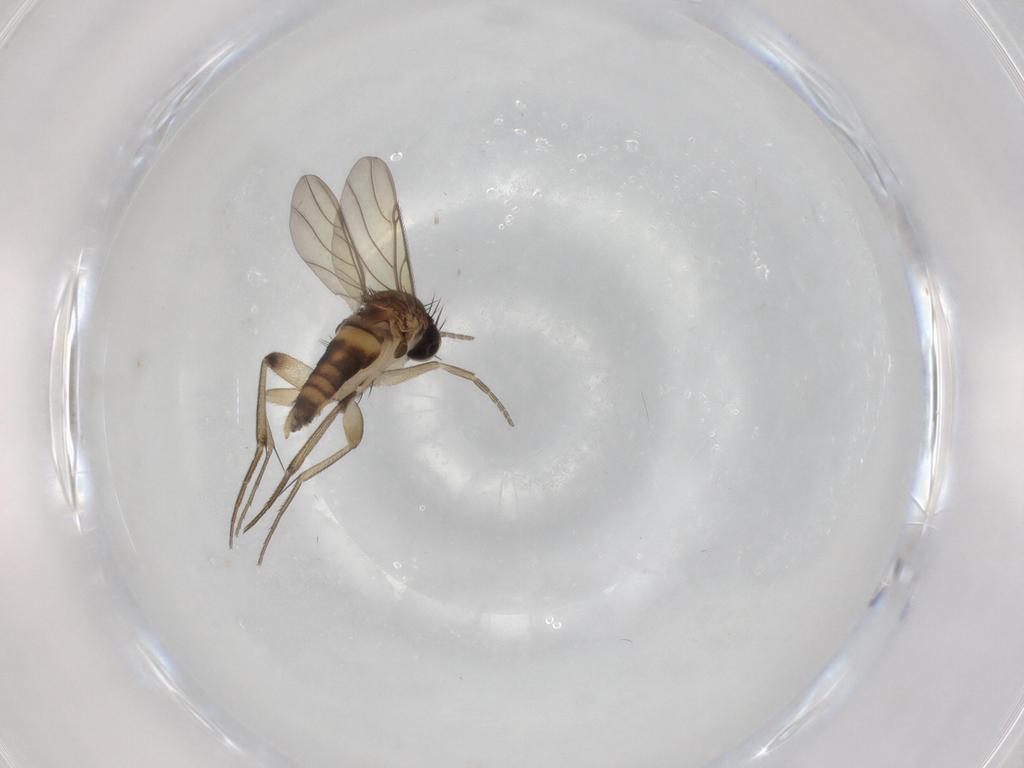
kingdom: Animalia
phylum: Arthropoda
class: Insecta
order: Diptera
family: Phoridae
